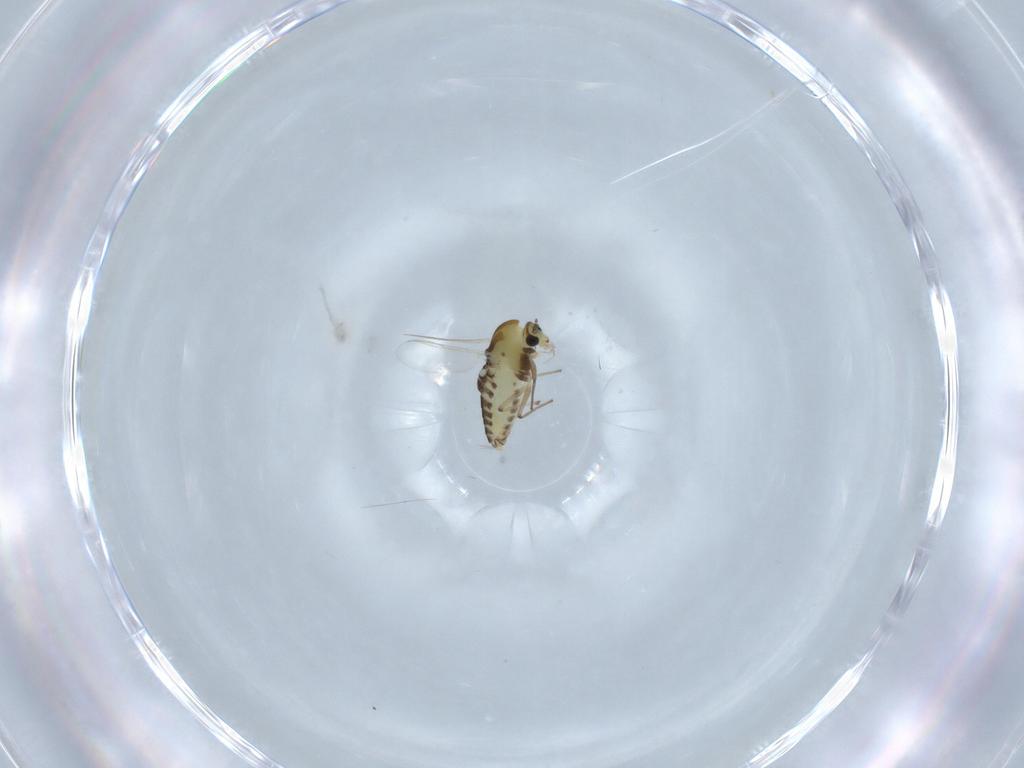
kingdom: Animalia
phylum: Arthropoda
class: Insecta
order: Diptera
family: Chironomidae
